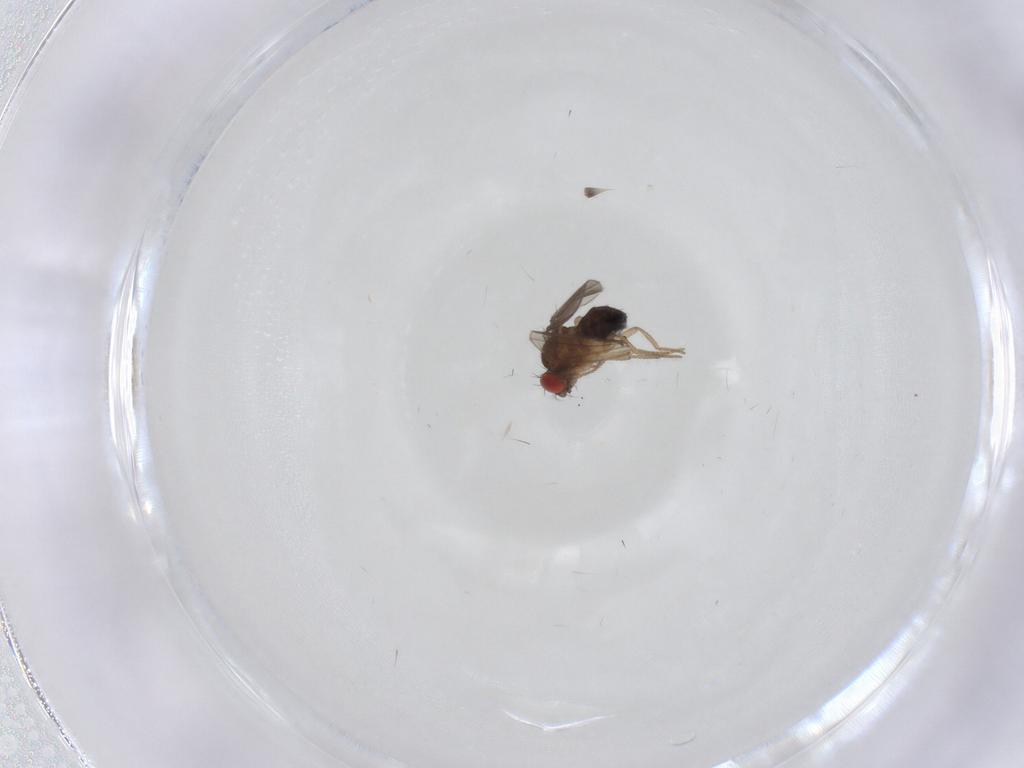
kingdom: Animalia
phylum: Arthropoda
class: Insecta
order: Diptera
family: Drosophilidae
